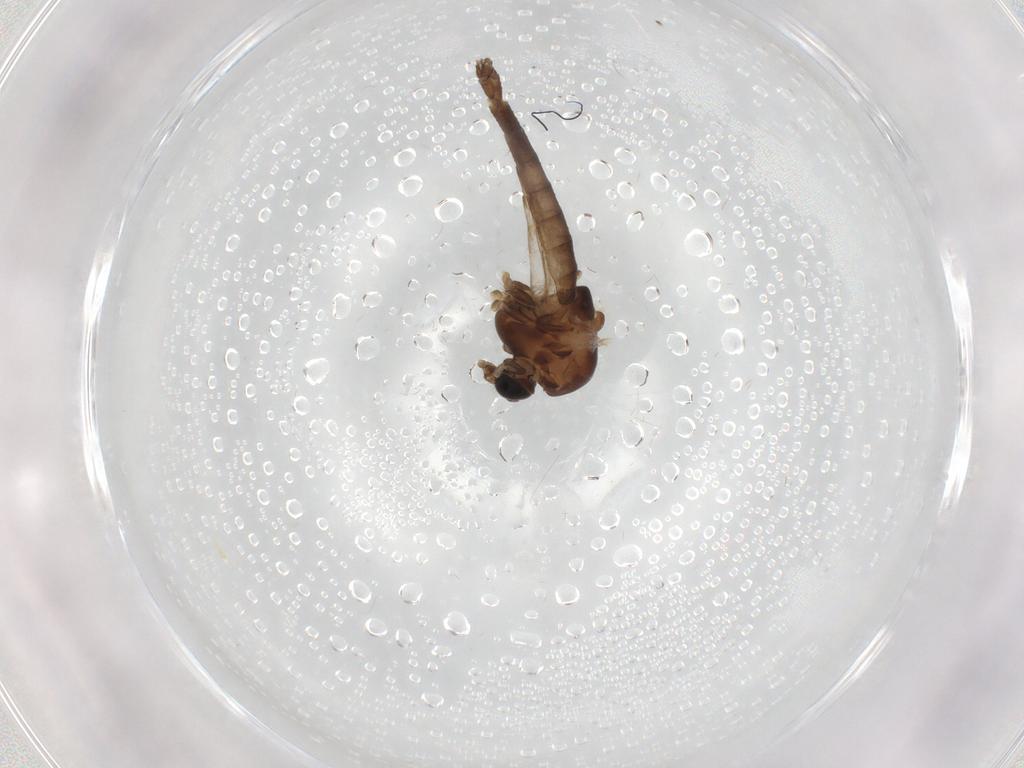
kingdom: Animalia
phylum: Arthropoda
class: Insecta
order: Diptera
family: Chironomidae
